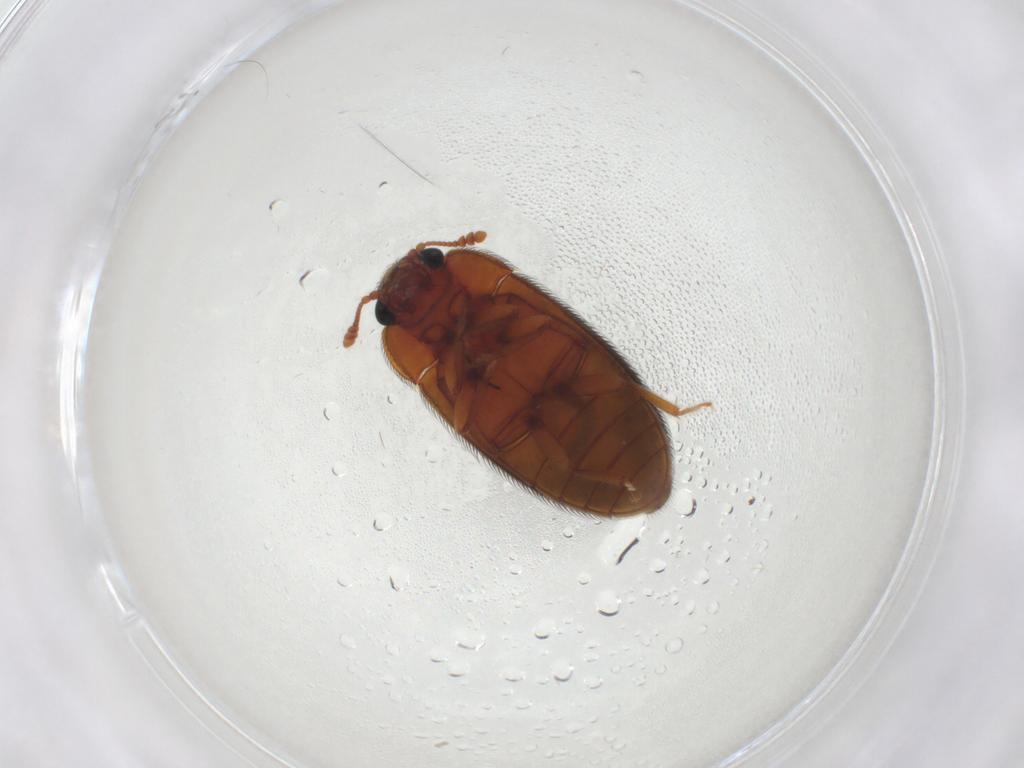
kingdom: Animalia
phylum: Arthropoda
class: Insecta
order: Coleoptera
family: Biphyllidae
